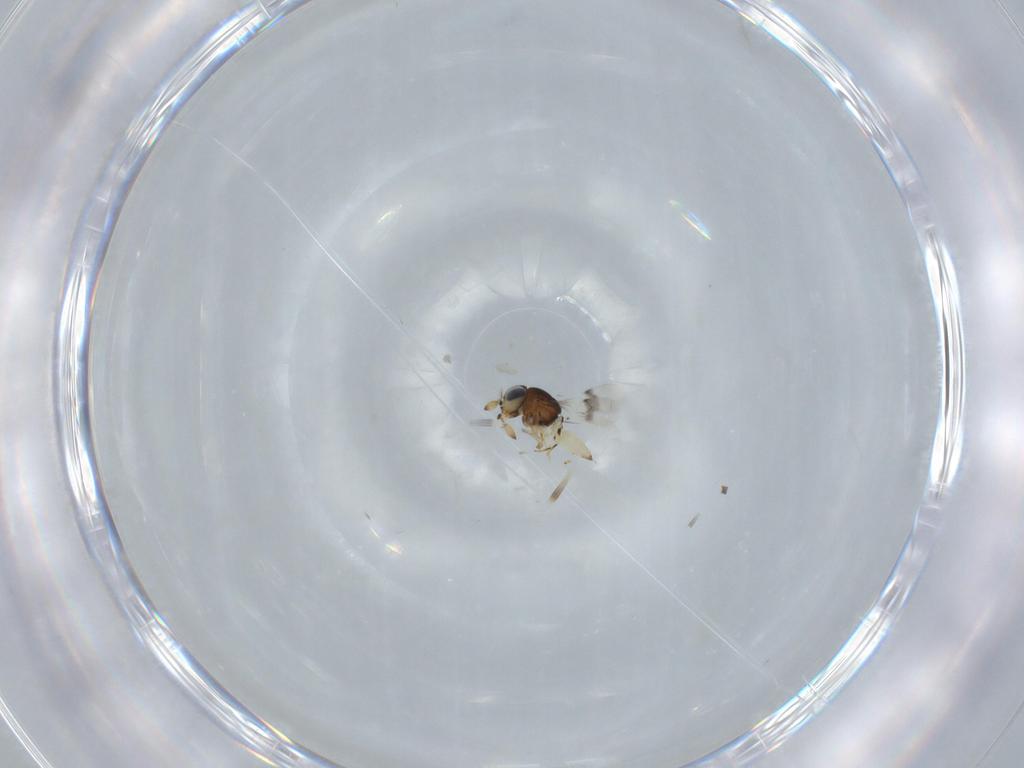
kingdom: Animalia
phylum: Arthropoda
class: Insecta
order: Hymenoptera
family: Scelionidae
